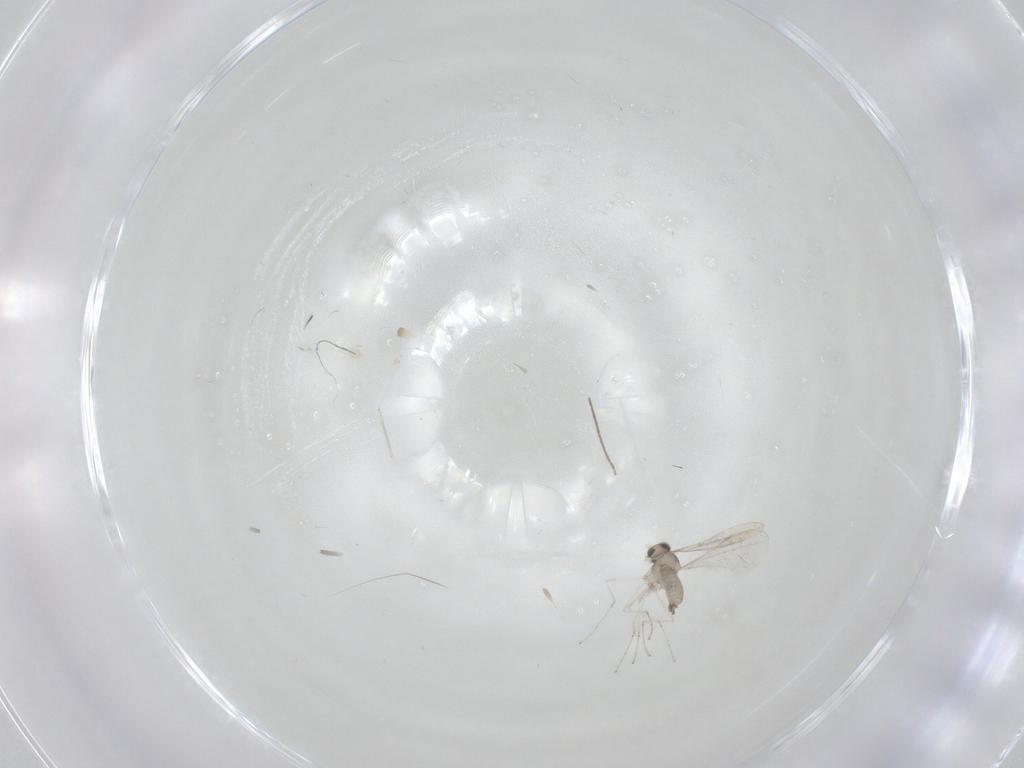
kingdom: Animalia
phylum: Arthropoda
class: Insecta
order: Diptera
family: Cecidomyiidae
